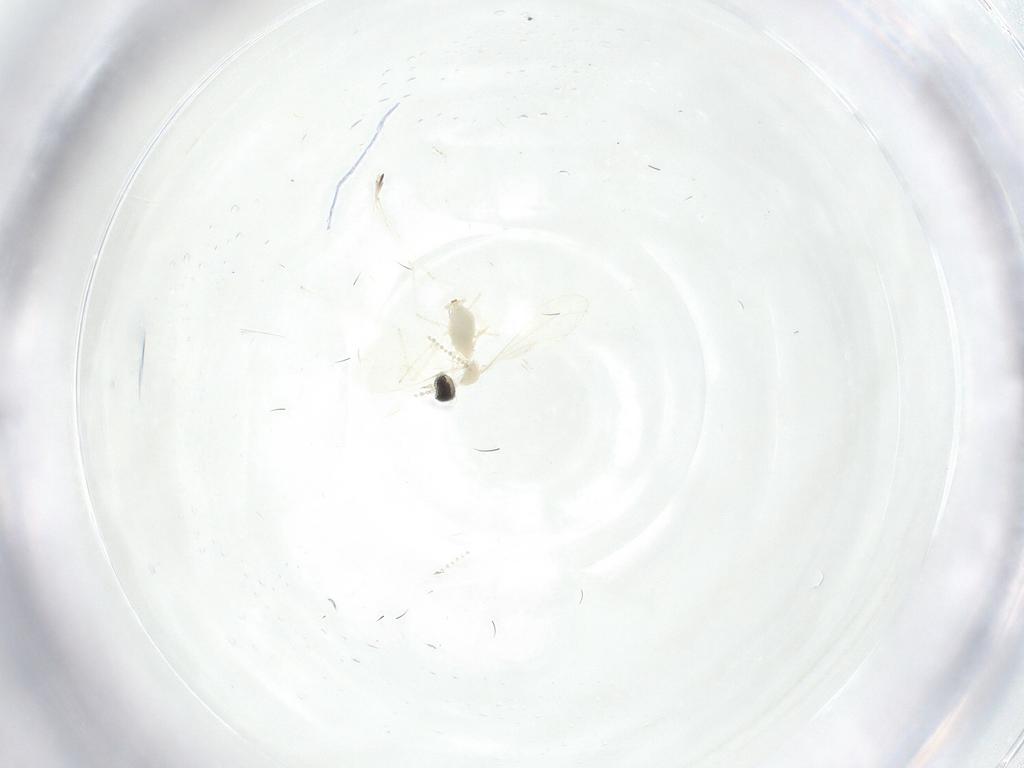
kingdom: Animalia
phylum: Arthropoda
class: Insecta
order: Diptera
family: Cecidomyiidae
